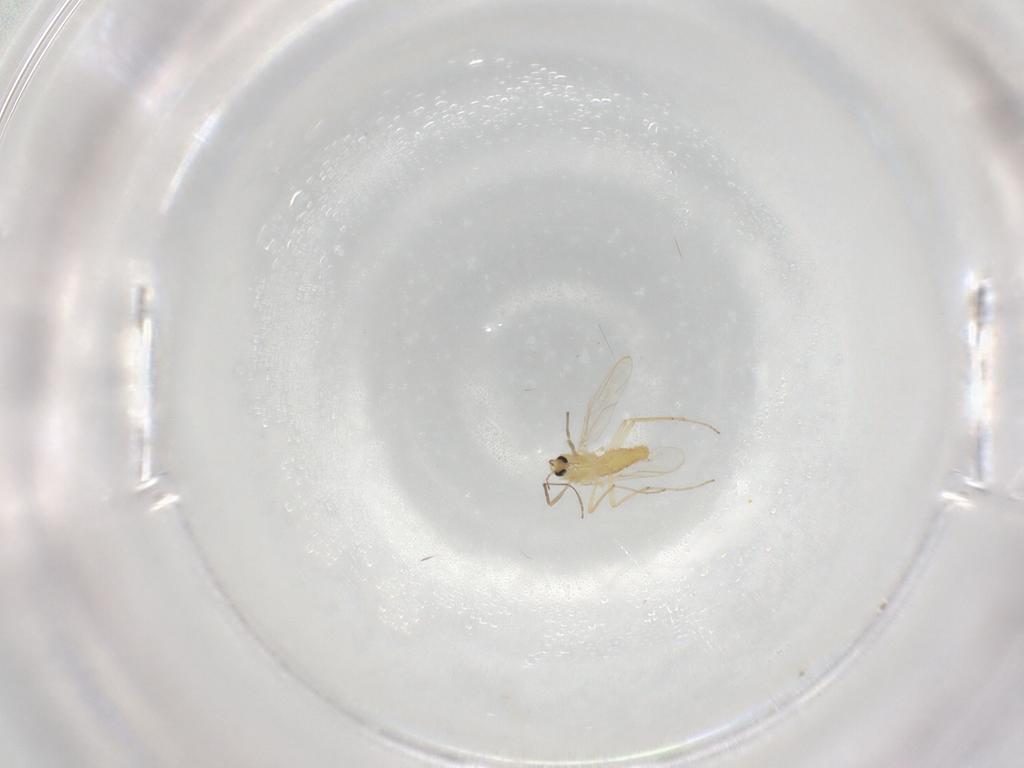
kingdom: Animalia
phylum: Arthropoda
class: Insecta
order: Diptera
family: Chironomidae
